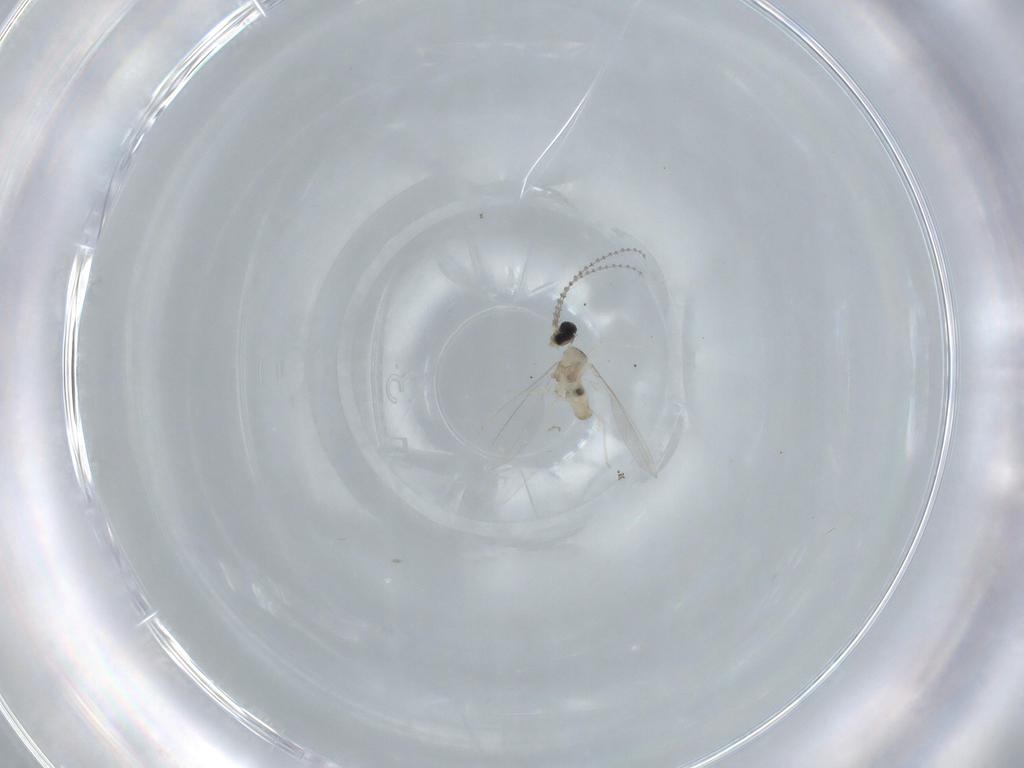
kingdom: Animalia
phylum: Arthropoda
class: Insecta
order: Diptera
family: Cecidomyiidae
